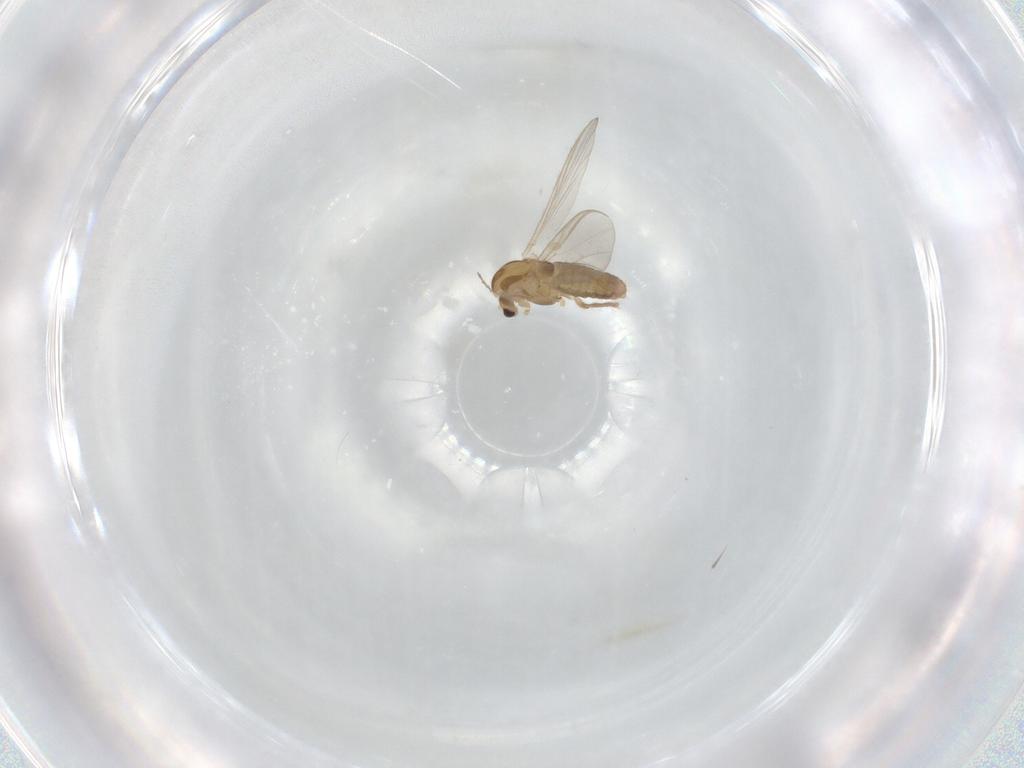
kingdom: Animalia
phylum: Arthropoda
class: Insecta
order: Diptera
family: Chironomidae
